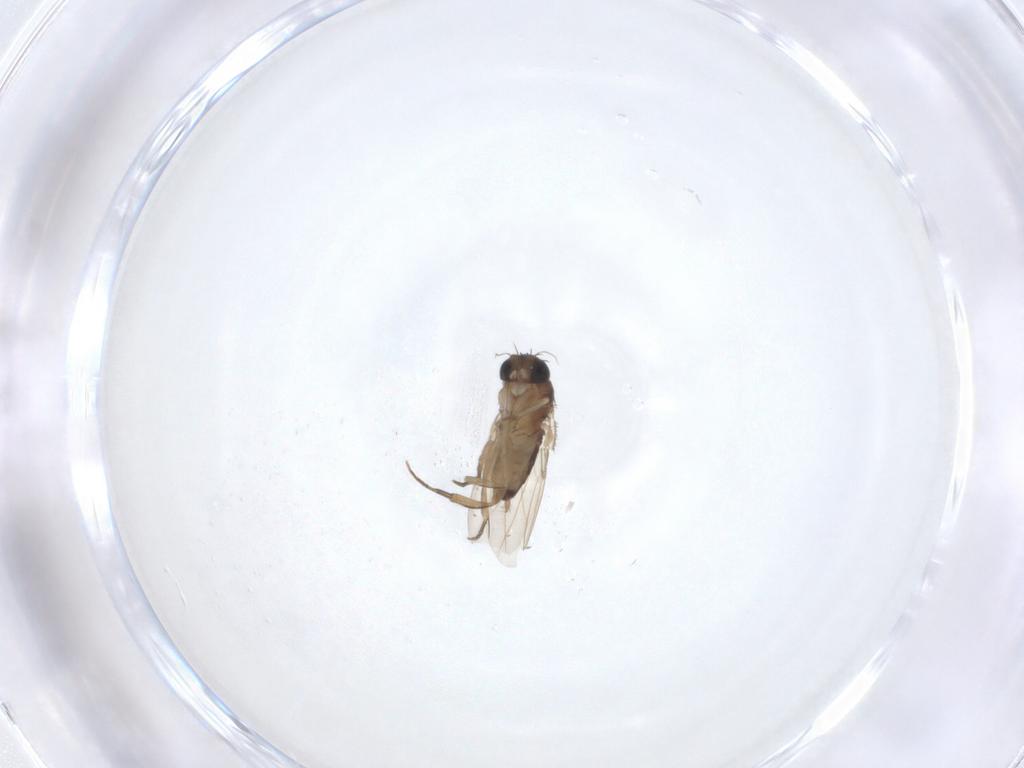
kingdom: Animalia
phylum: Arthropoda
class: Insecta
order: Diptera
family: Phoridae
